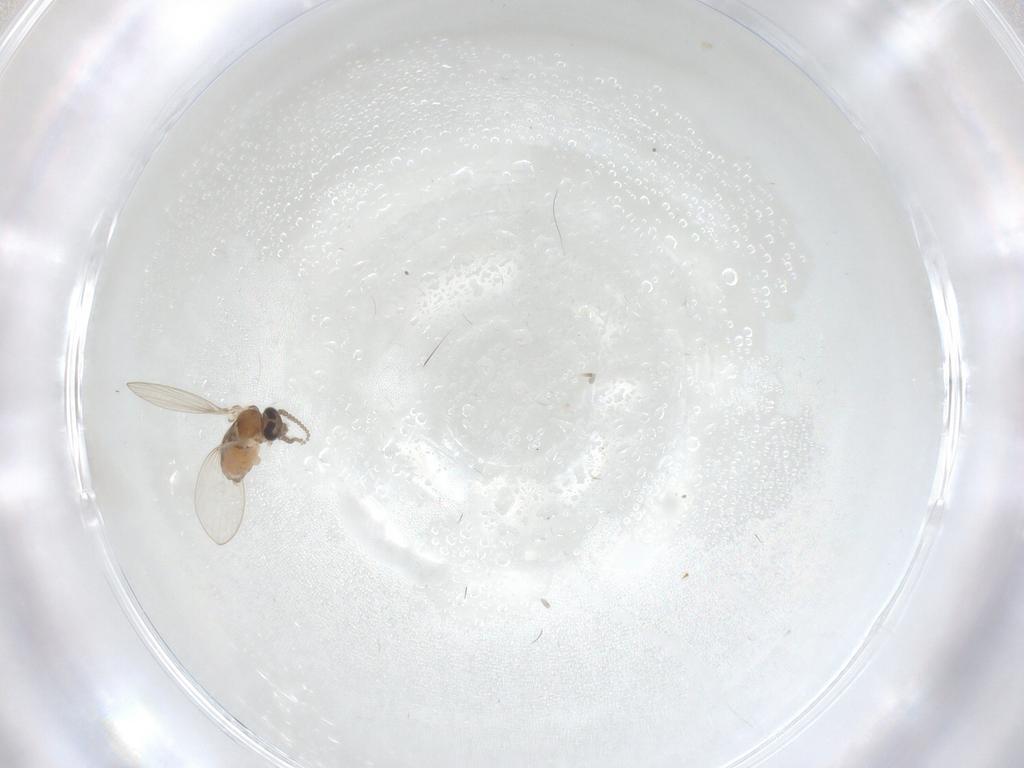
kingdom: Animalia
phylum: Arthropoda
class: Insecta
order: Diptera
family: Psychodidae
